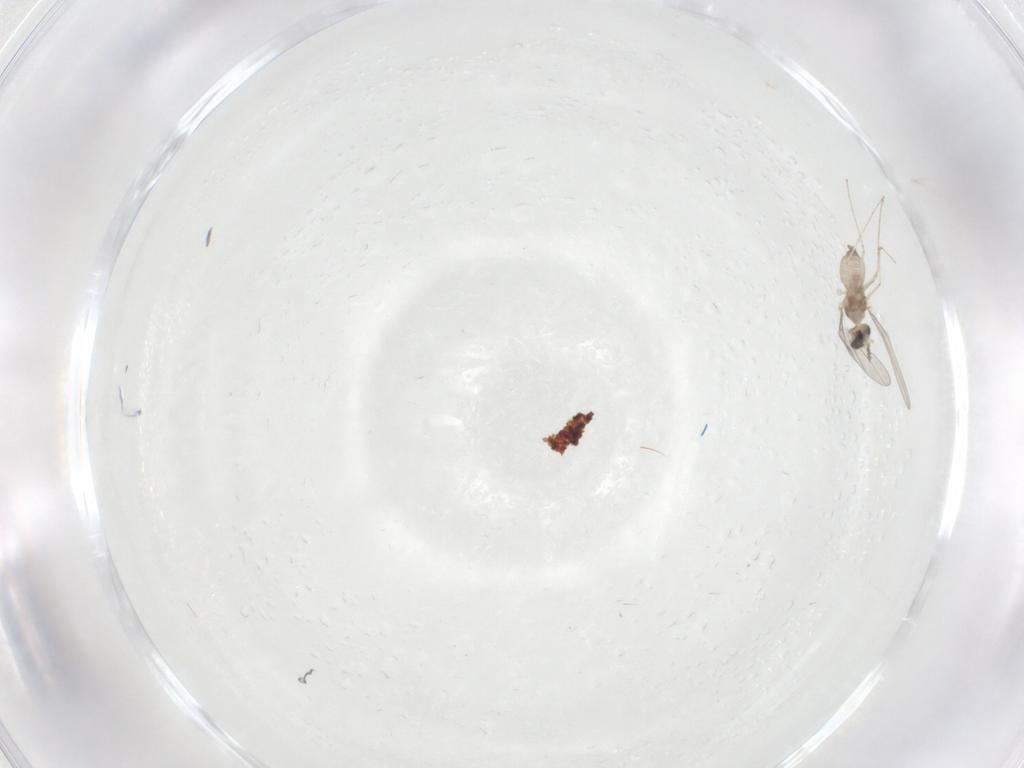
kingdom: Animalia
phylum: Arthropoda
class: Insecta
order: Diptera
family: Cecidomyiidae
